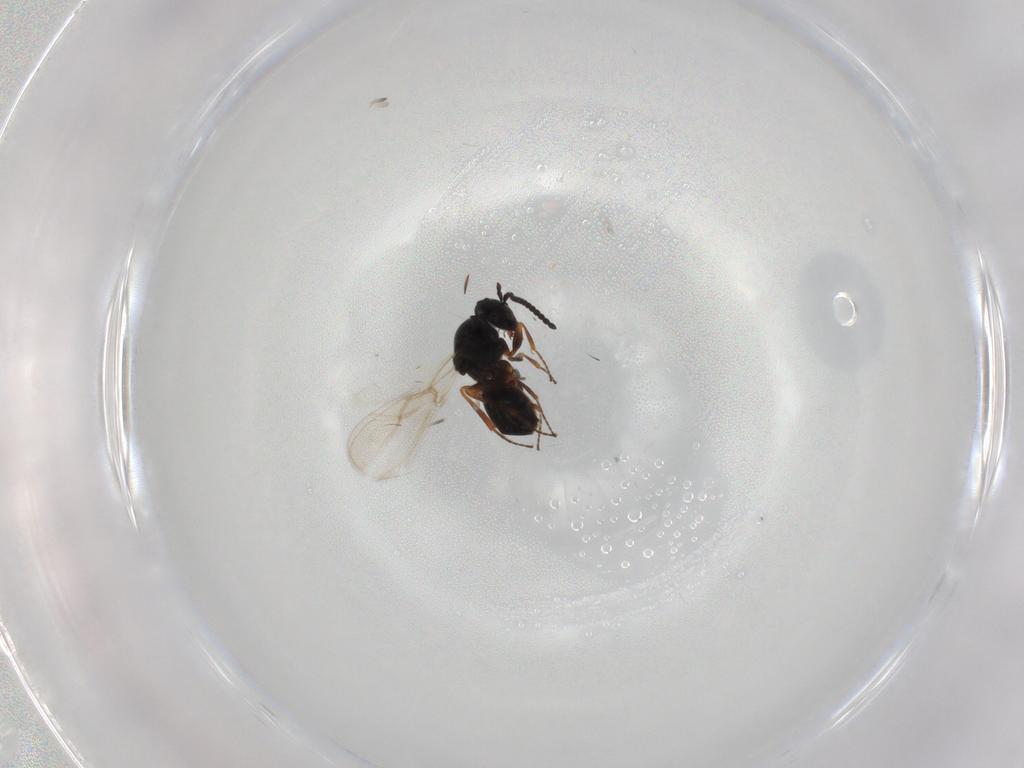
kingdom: Animalia
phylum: Arthropoda
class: Insecta
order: Hymenoptera
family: Figitidae
